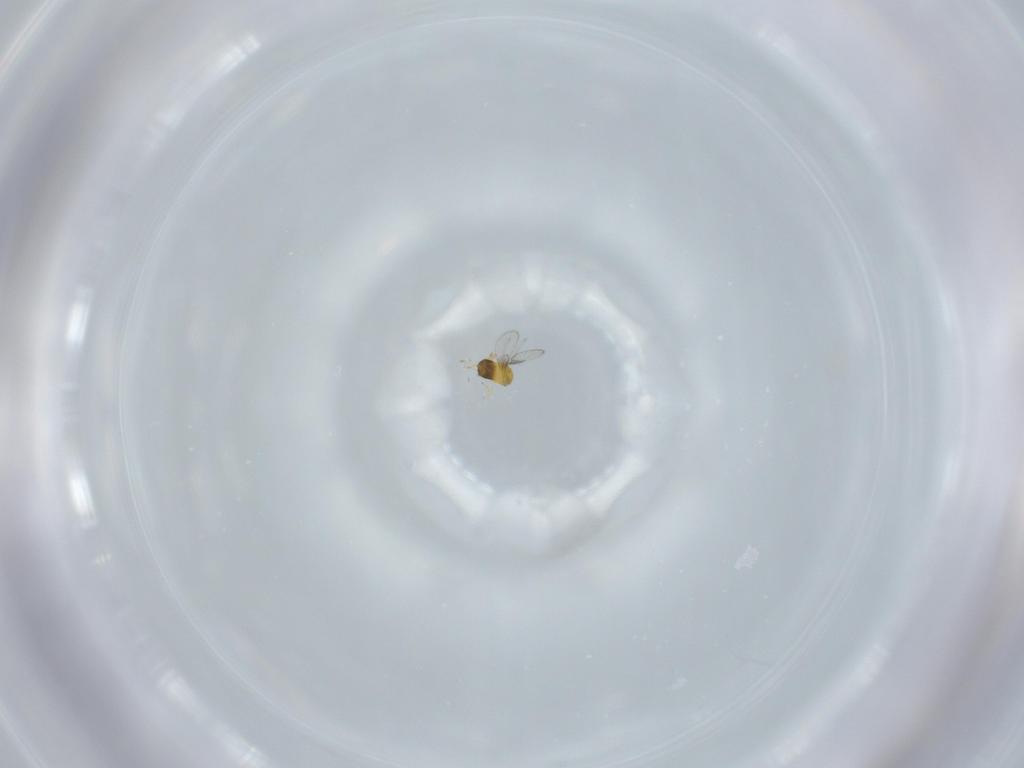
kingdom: Animalia
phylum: Arthropoda
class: Insecta
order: Hymenoptera
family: Trichogrammatidae
